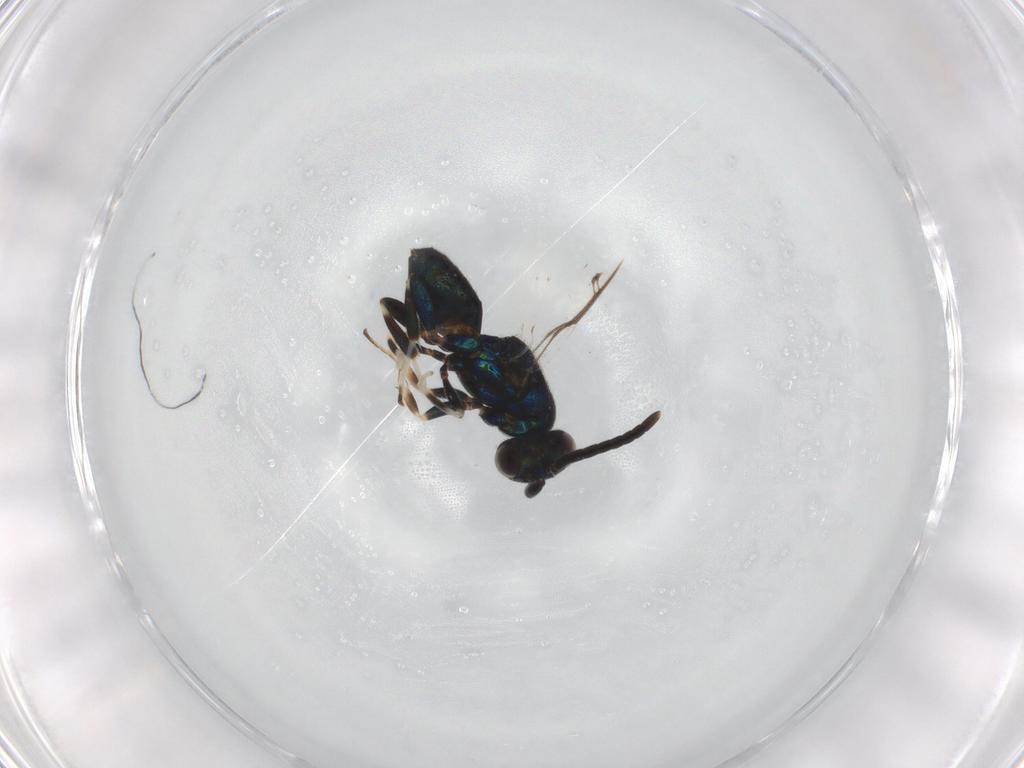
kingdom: Animalia
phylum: Arthropoda
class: Insecta
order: Hymenoptera
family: Eupelmidae
